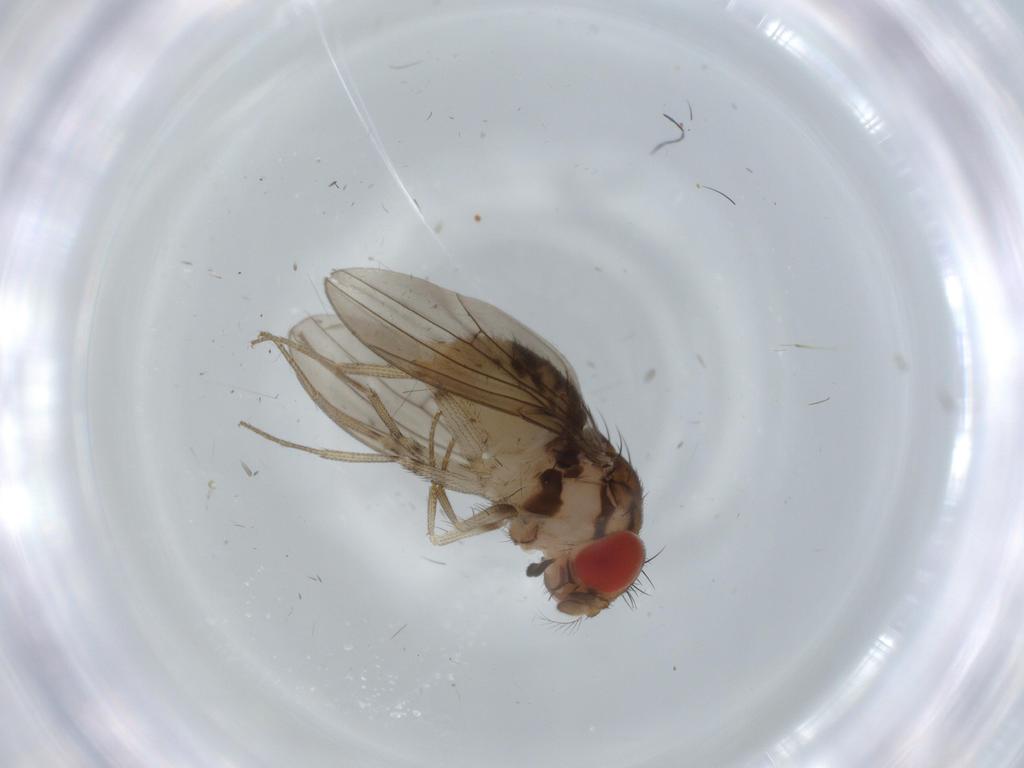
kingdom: Animalia
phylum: Arthropoda
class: Insecta
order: Diptera
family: Drosophilidae
